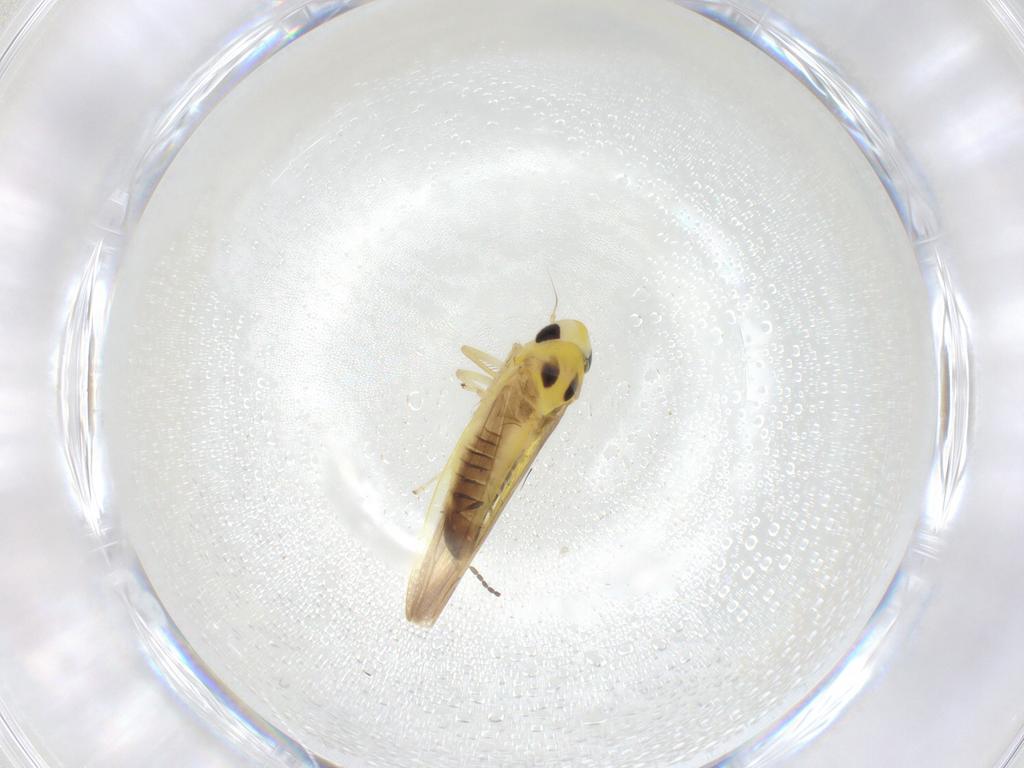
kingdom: Animalia
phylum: Arthropoda
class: Insecta
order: Hemiptera
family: Cicadellidae
